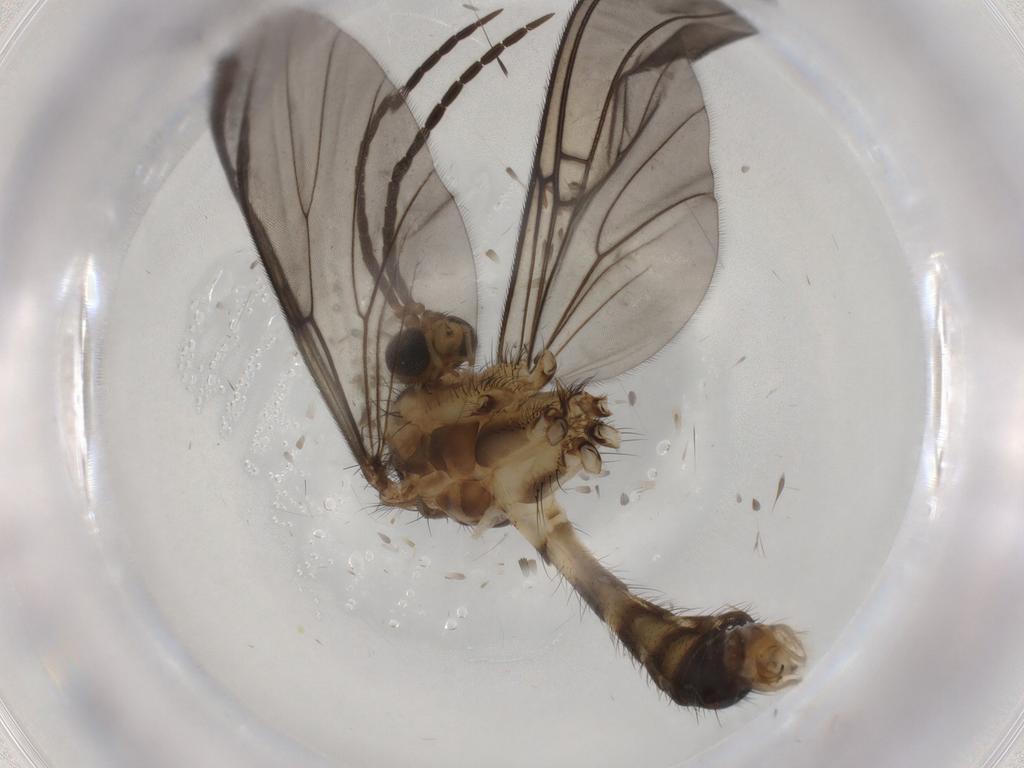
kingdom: Animalia
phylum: Arthropoda
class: Insecta
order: Diptera
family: Mycetophilidae
